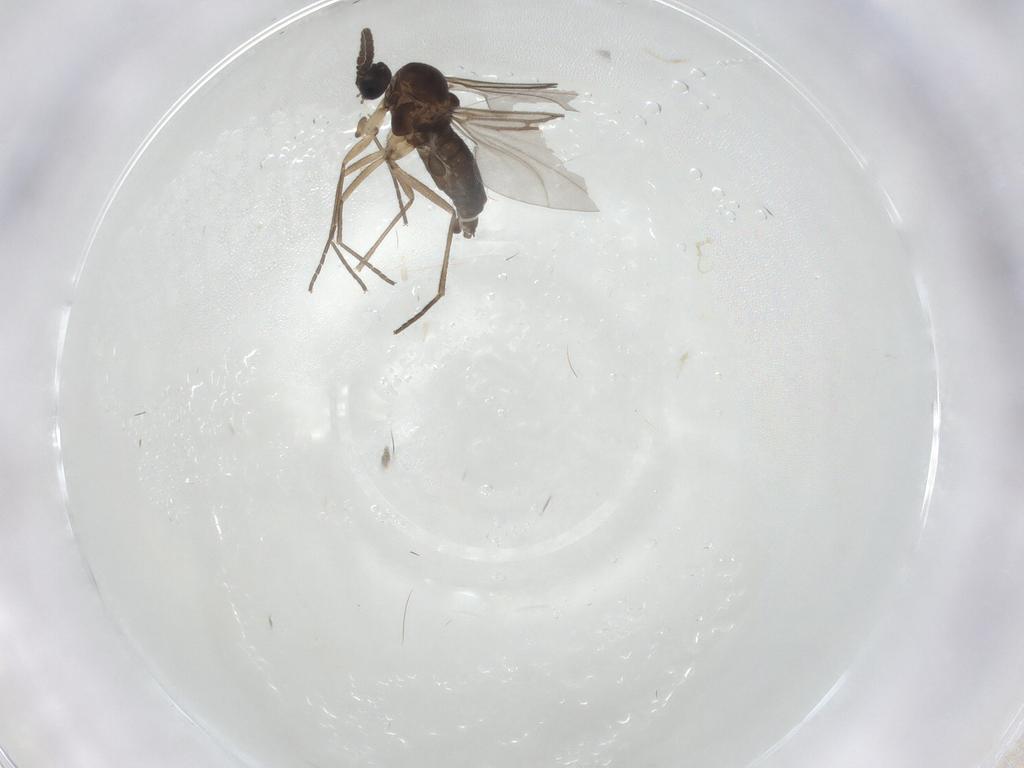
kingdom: Animalia
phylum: Arthropoda
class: Insecta
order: Diptera
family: Sciaridae
